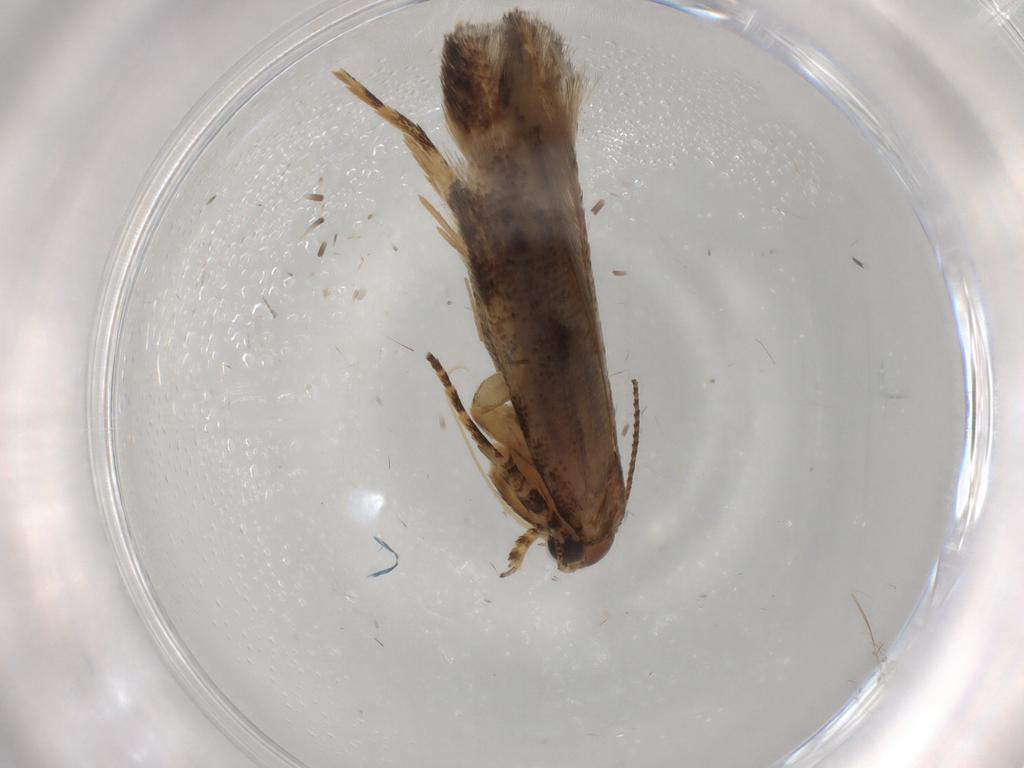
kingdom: Animalia
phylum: Arthropoda
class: Insecta
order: Lepidoptera
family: Gelechiidae
